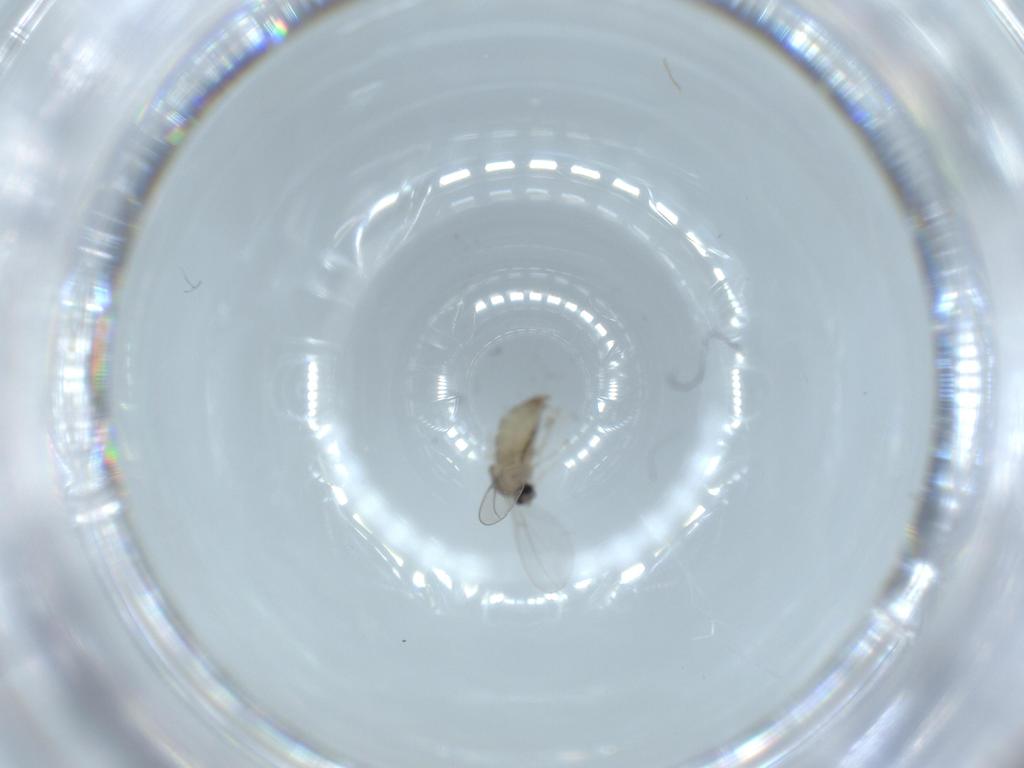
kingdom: Animalia
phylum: Arthropoda
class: Insecta
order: Diptera
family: Cecidomyiidae
